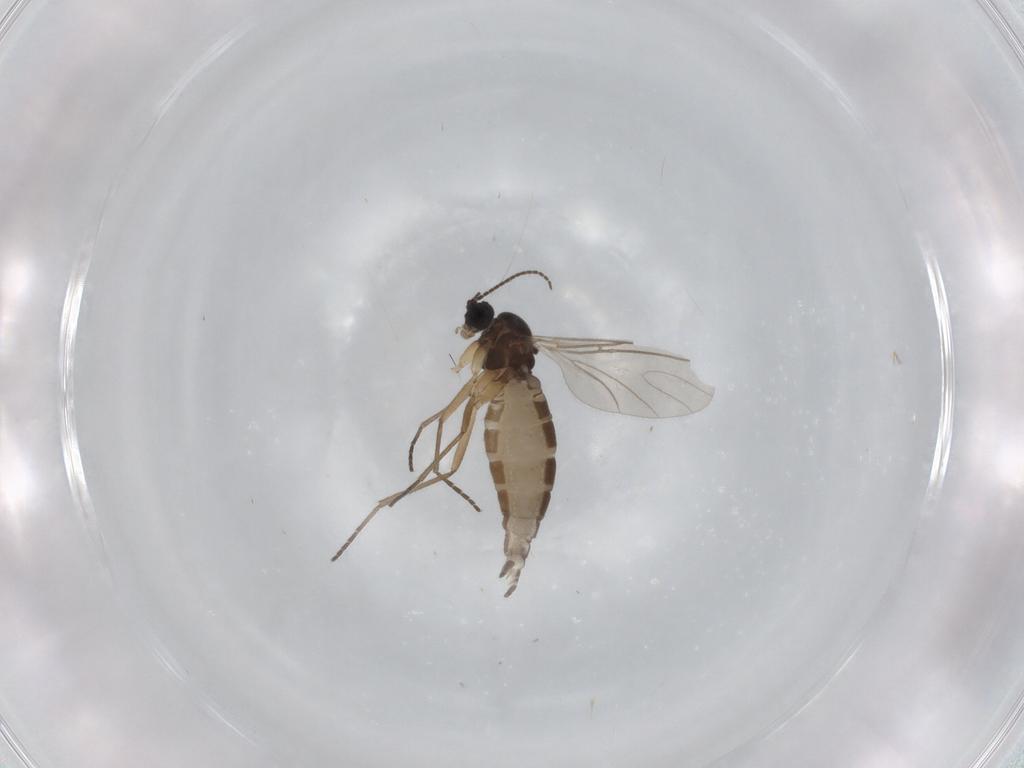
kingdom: Animalia
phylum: Arthropoda
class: Insecta
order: Diptera
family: Sciaridae
